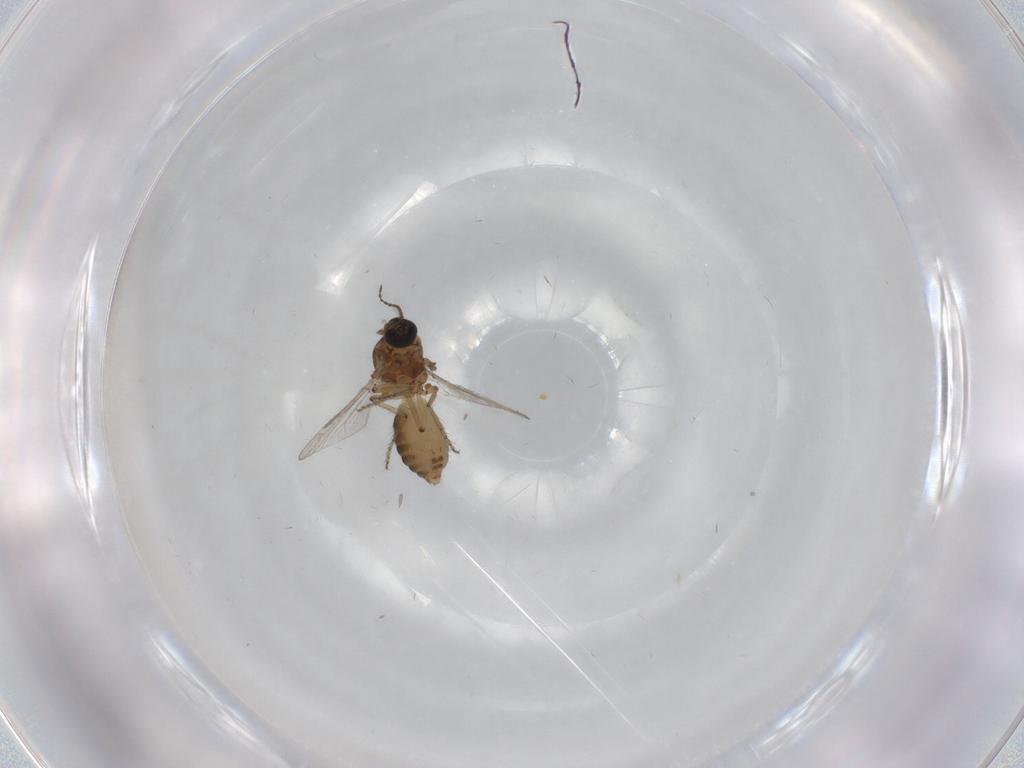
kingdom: Animalia
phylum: Arthropoda
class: Insecta
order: Diptera
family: Ceratopogonidae
